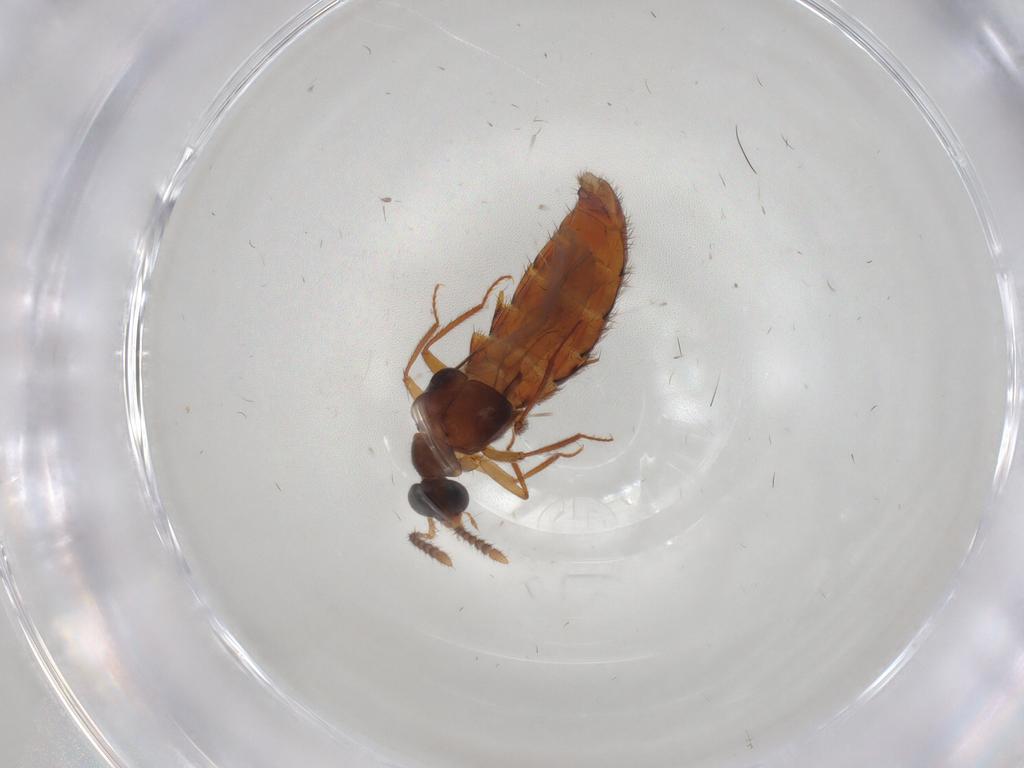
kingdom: Animalia
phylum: Arthropoda
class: Insecta
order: Coleoptera
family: Staphylinidae
